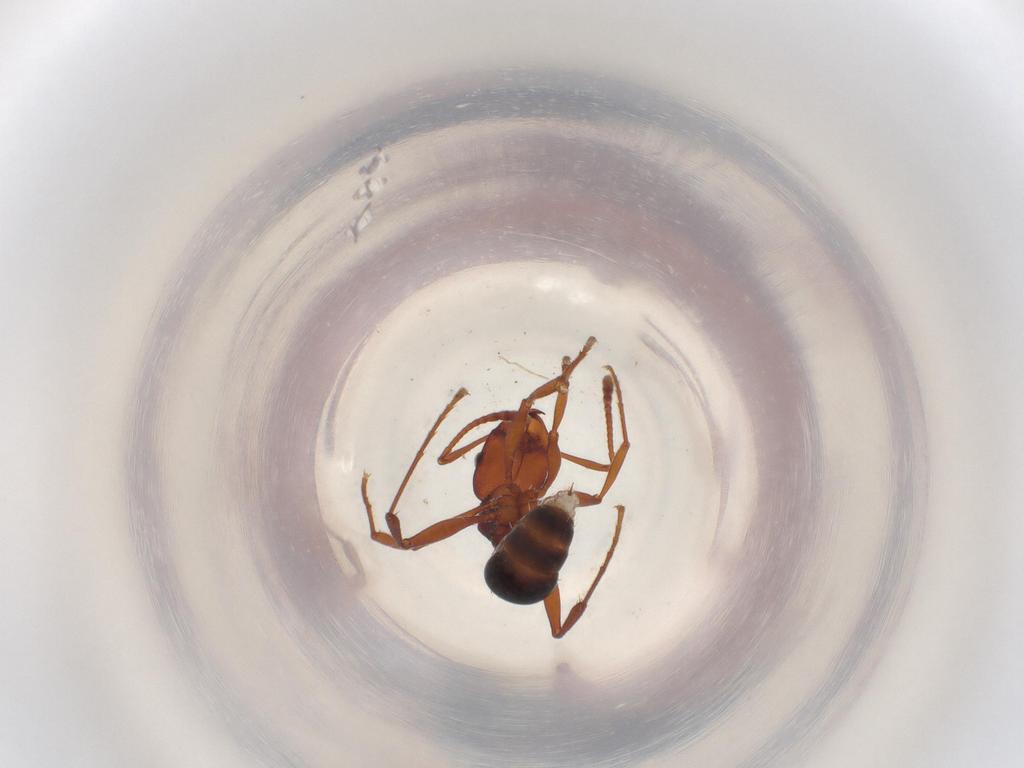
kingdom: Animalia
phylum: Arthropoda
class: Insecta
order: Hymenoptera
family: Formicidae
